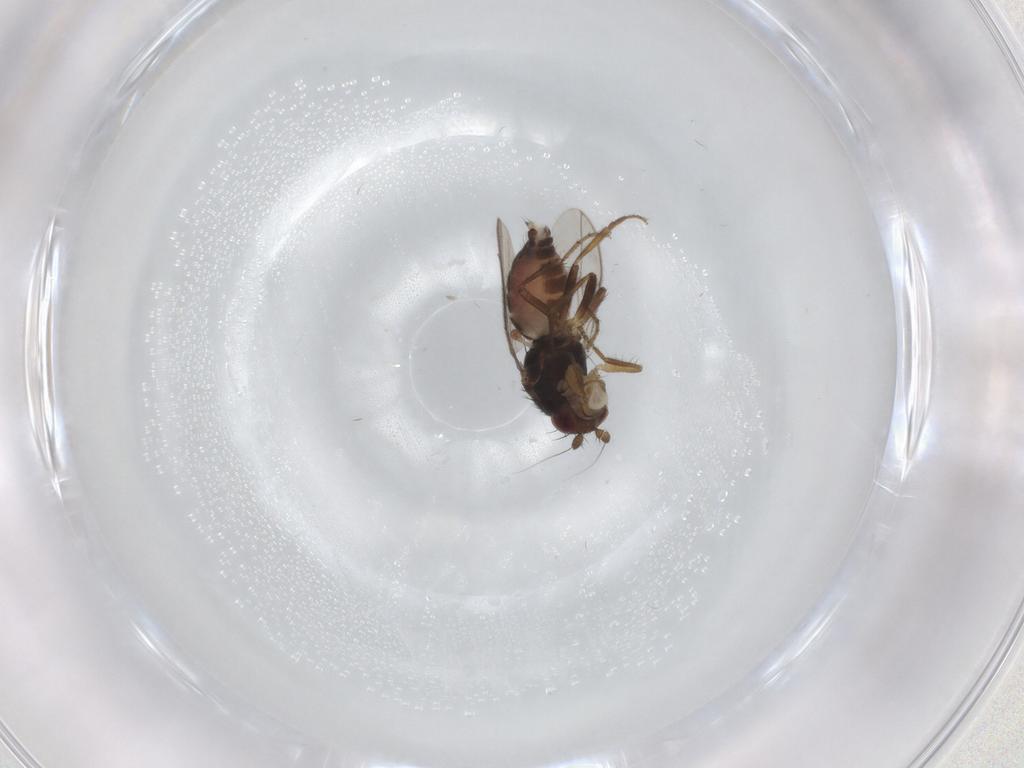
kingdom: Animalia
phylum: Arthropoda
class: Insecta
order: Diptera
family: Sphaeroceridae
